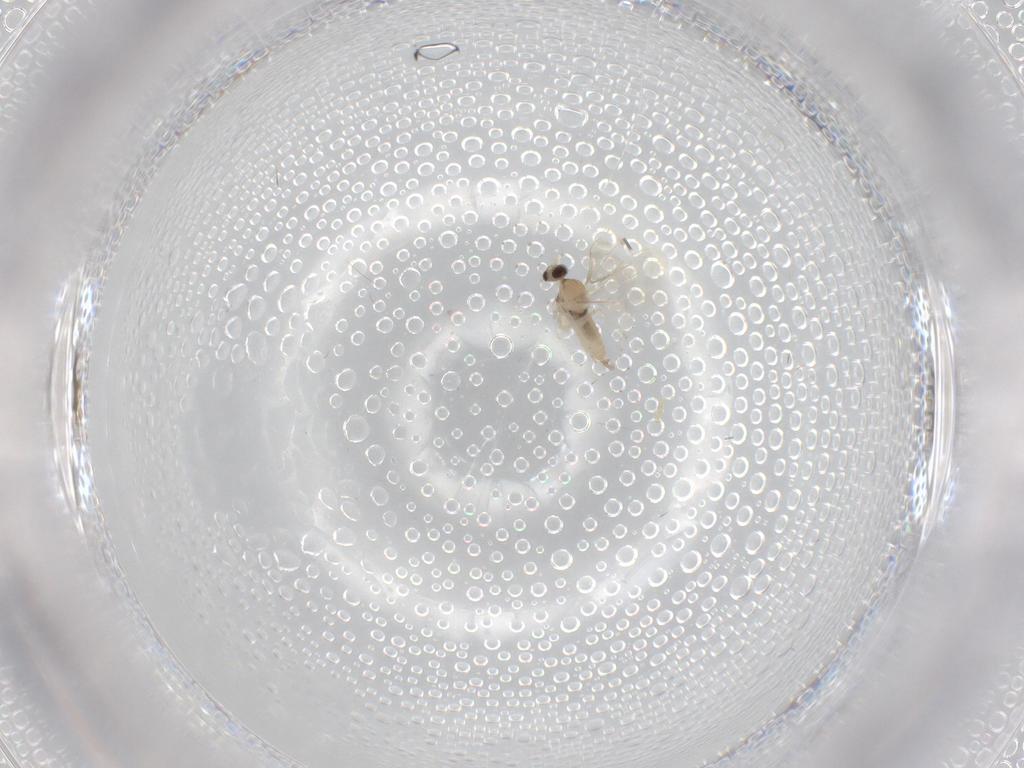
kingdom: Animalia
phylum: Arthropoda
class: Insecta
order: Diptera
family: Cecidomyiidae
